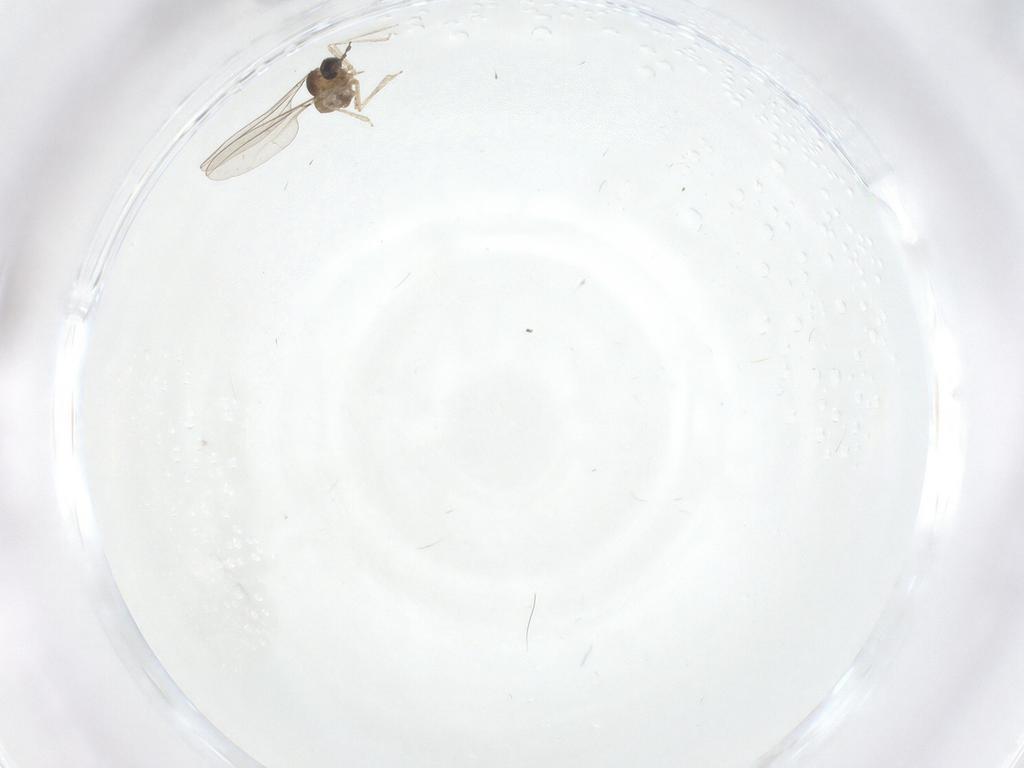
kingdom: Animalia
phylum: Arthropoda
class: Insecta
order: Diptera
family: Cecidomyiidae
